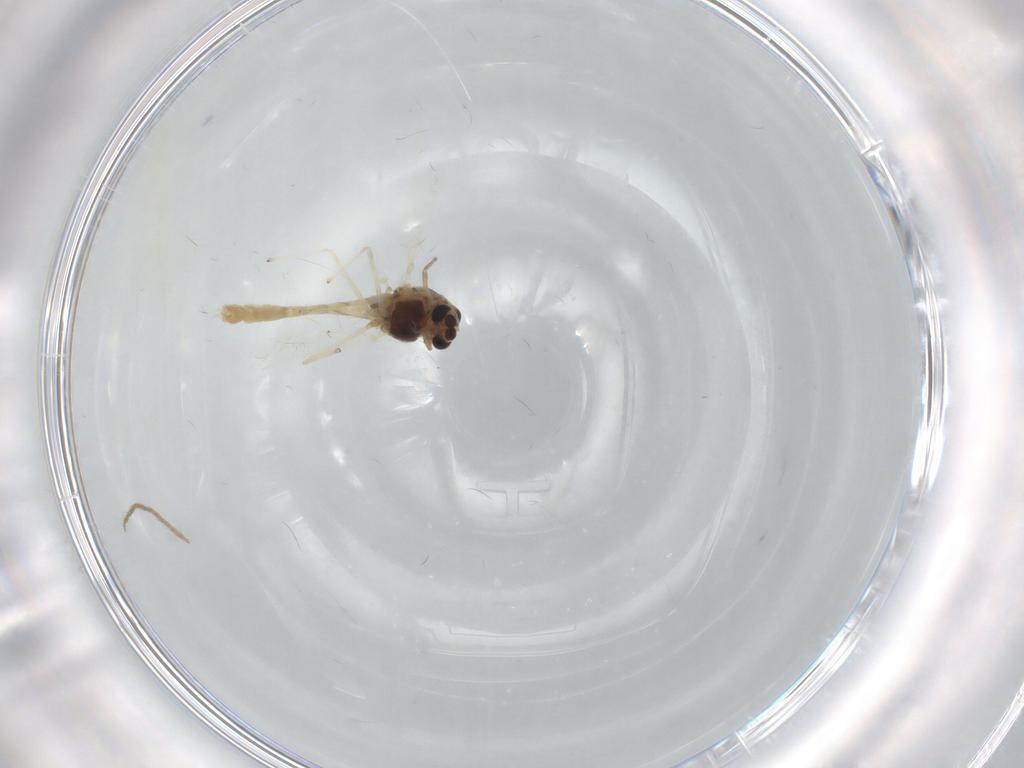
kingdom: Animalia
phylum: Arthropoda
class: Insecta
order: Diptera
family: Chironomidae
